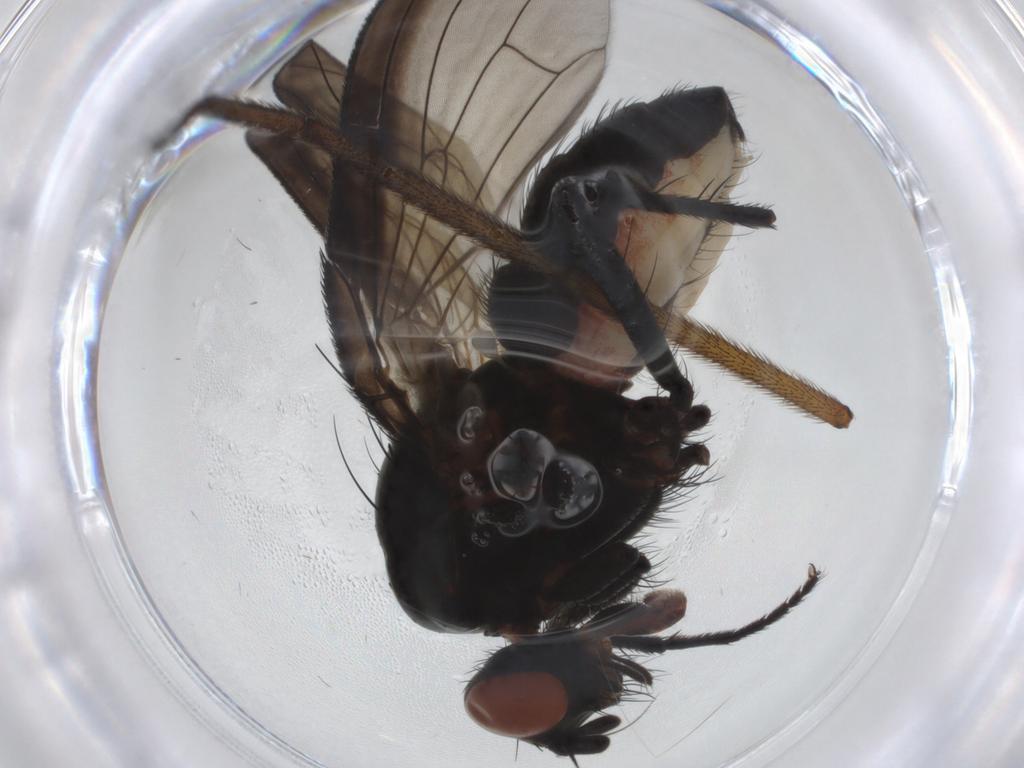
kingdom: Animalia
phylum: Arthropoda
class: Insecta
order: Diptera
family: Anthomyiidae
